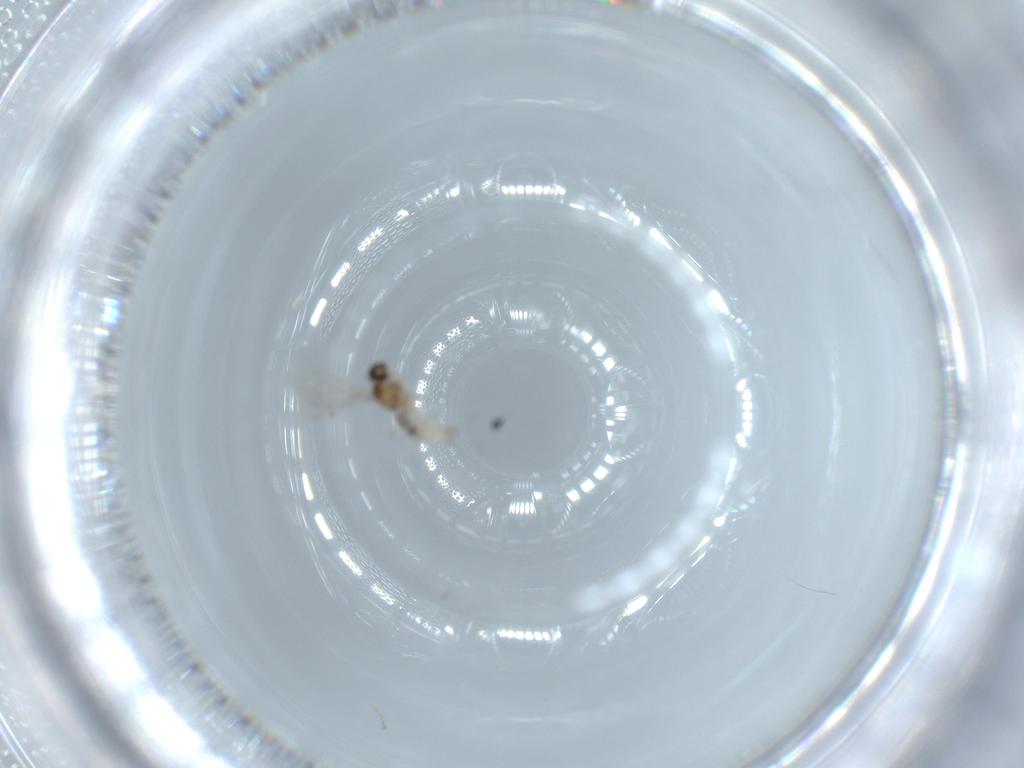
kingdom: Animalia
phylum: Arthropoda
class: Insecta
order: Diptera
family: Cecidomyiidae
